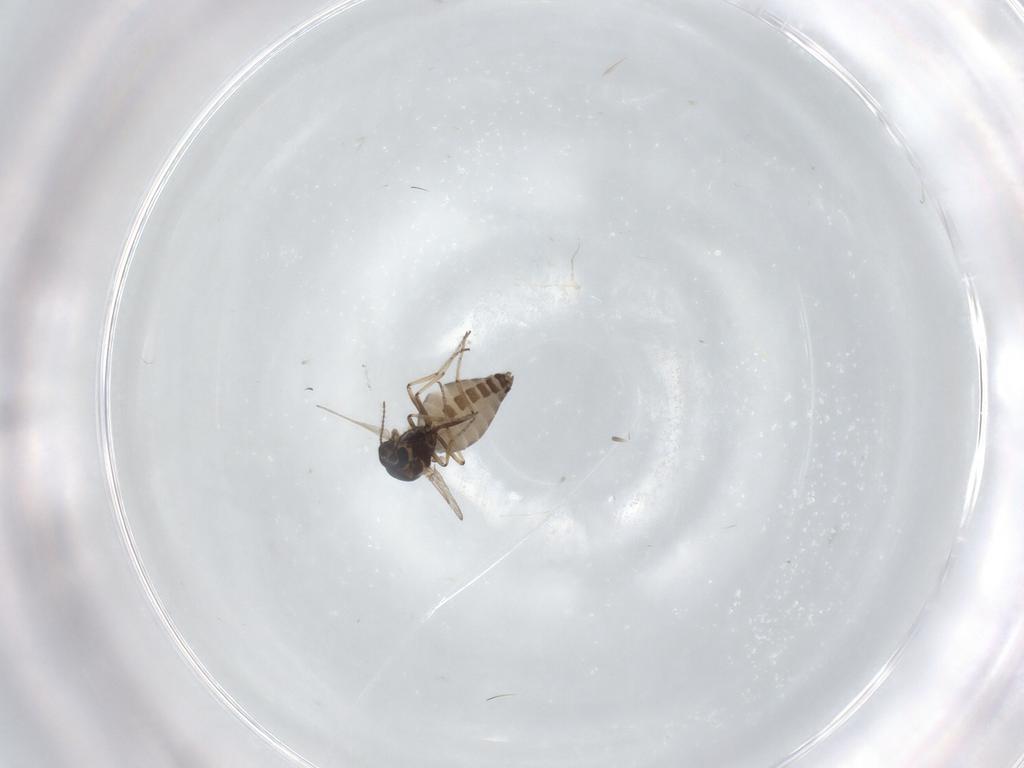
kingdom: Animalia
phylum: Arthropoda
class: Insecta
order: Diptera
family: Ceratopogonidae
